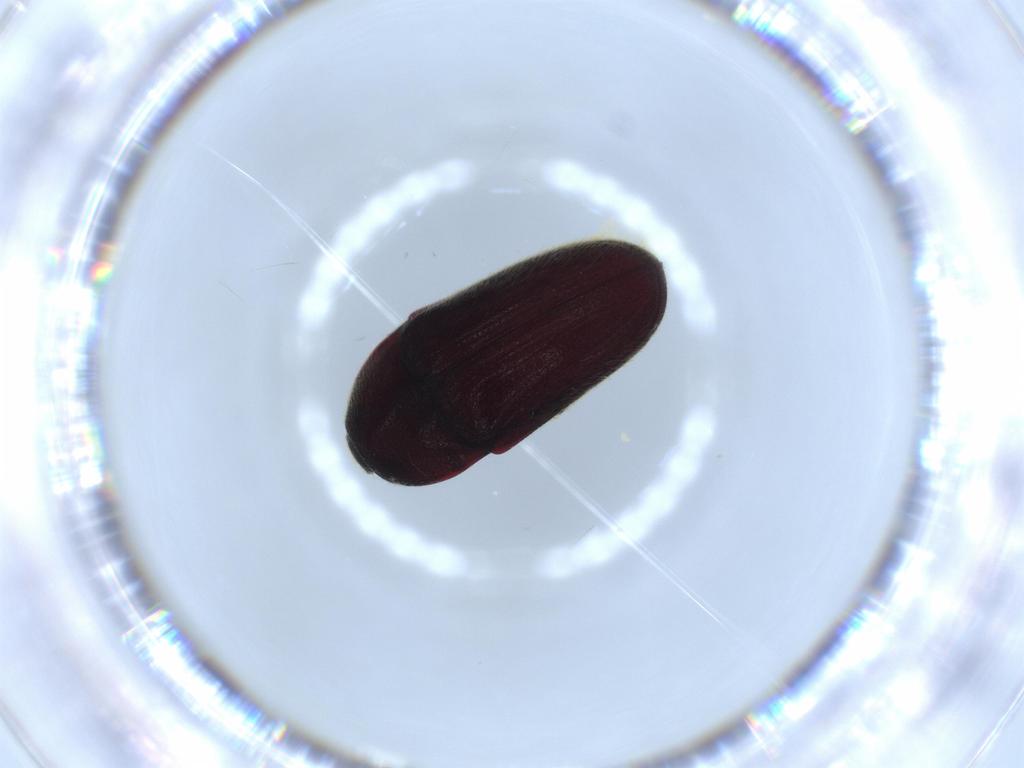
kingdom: Animalia
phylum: Arthropoda
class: Insecta
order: Coleoptera
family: Throscidae
